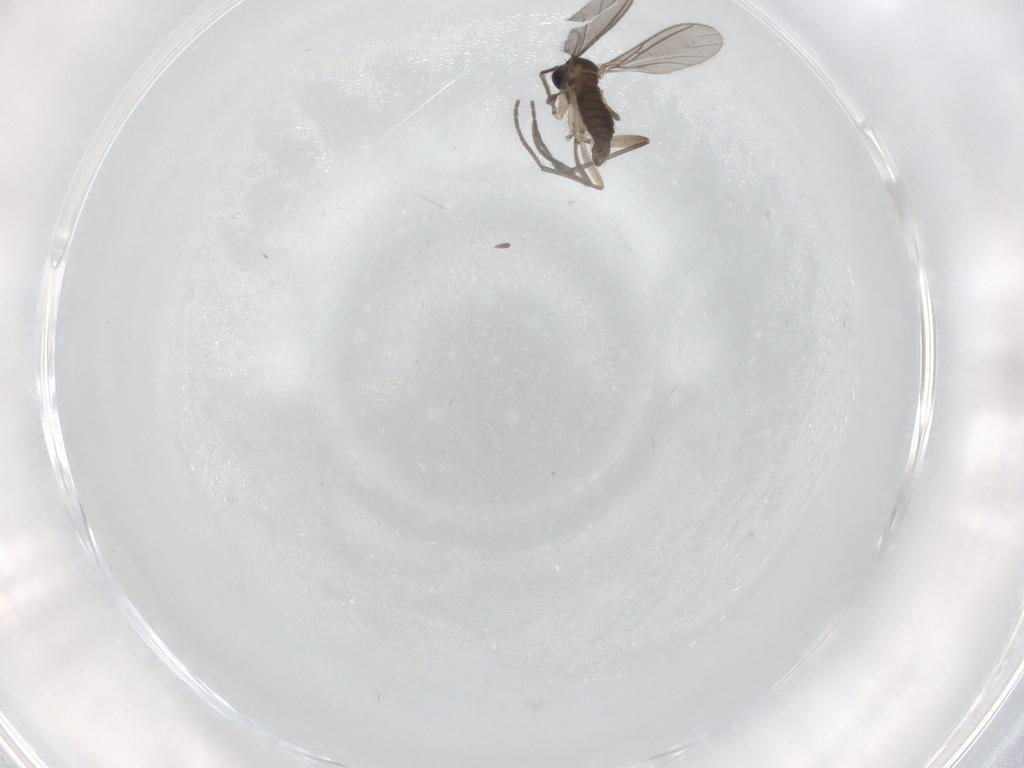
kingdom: Animalia
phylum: Arthropoda
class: Insecta
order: Diptera
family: Sciaridae
